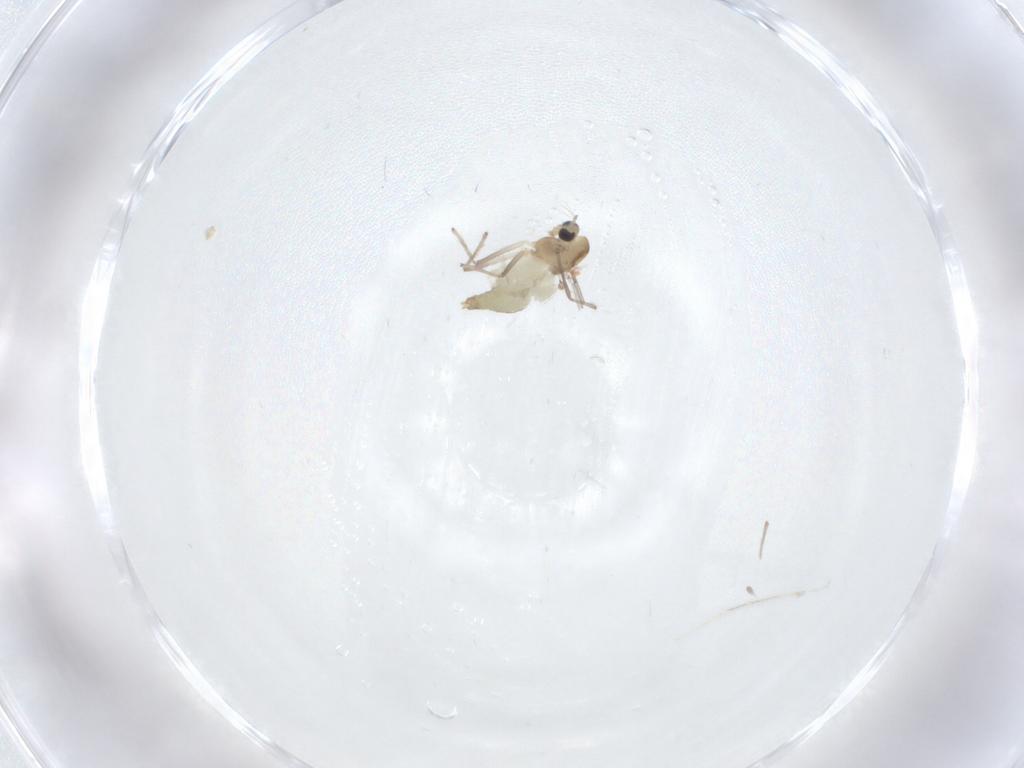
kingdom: Animalia
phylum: Arthropoda
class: Insecta
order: Diptera
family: Chironomidae
